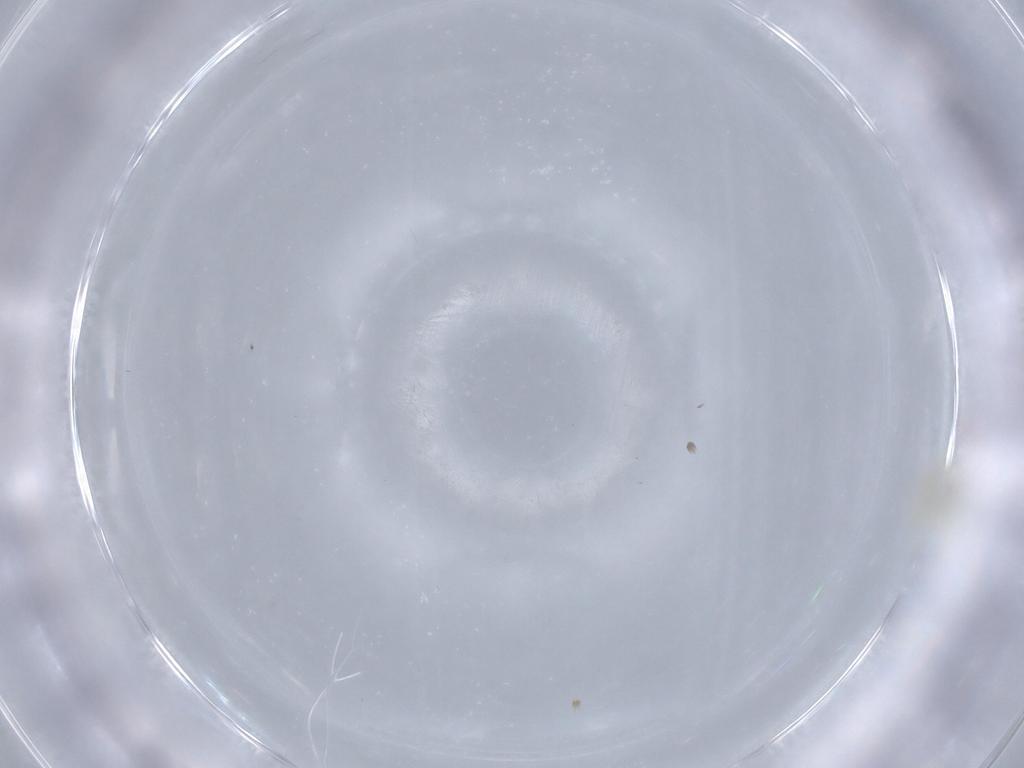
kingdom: Animalia
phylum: Arthropoda
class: Insecta
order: Hemiptera
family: Aleyrodidae
